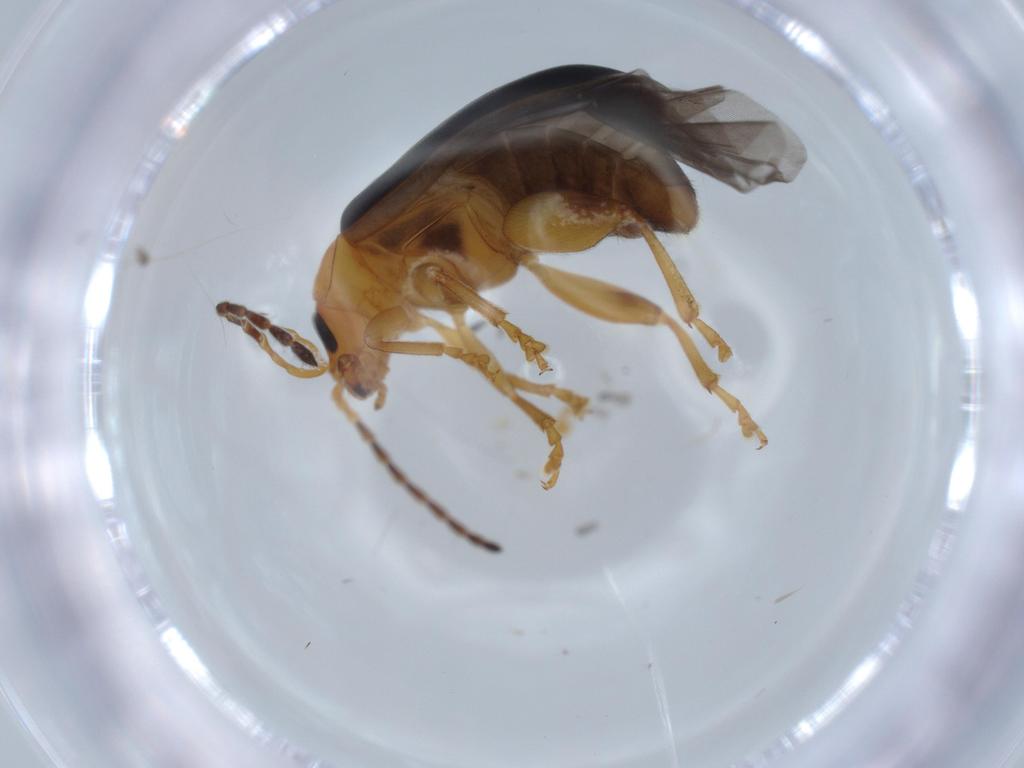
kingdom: Animalia
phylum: Arthropoda
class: Insecta
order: Coleoptera
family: Chrysomelidae
